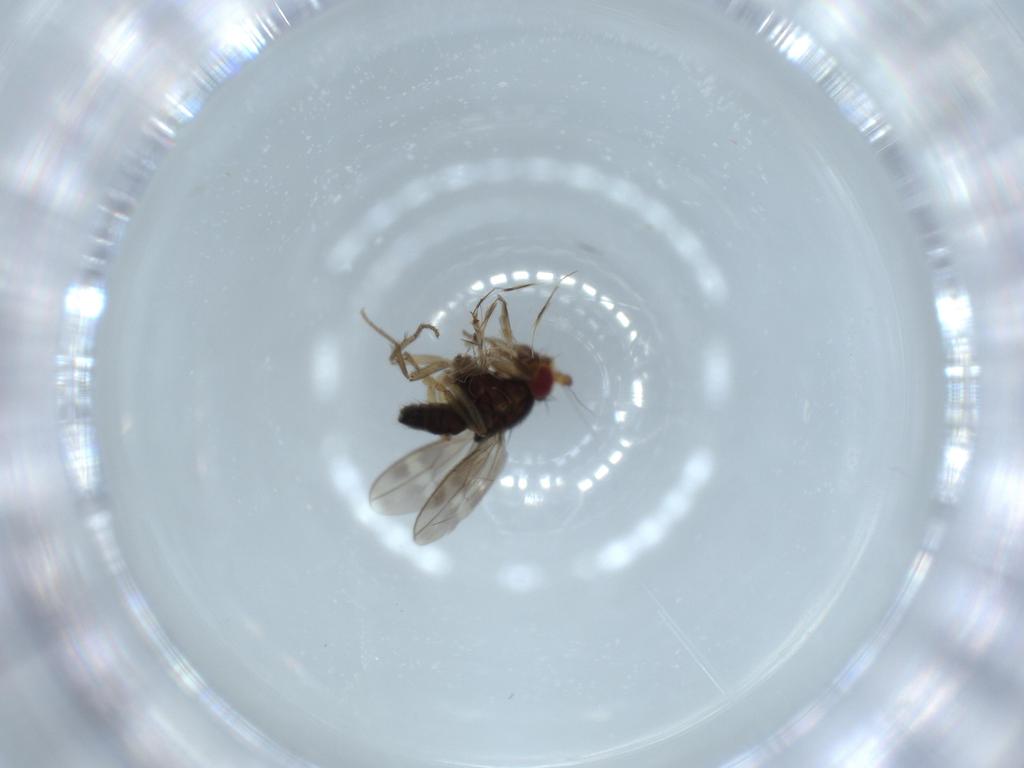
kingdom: Animalia
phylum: Arthropoda
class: Insecta
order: Diptera
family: Sphaeroceridae
